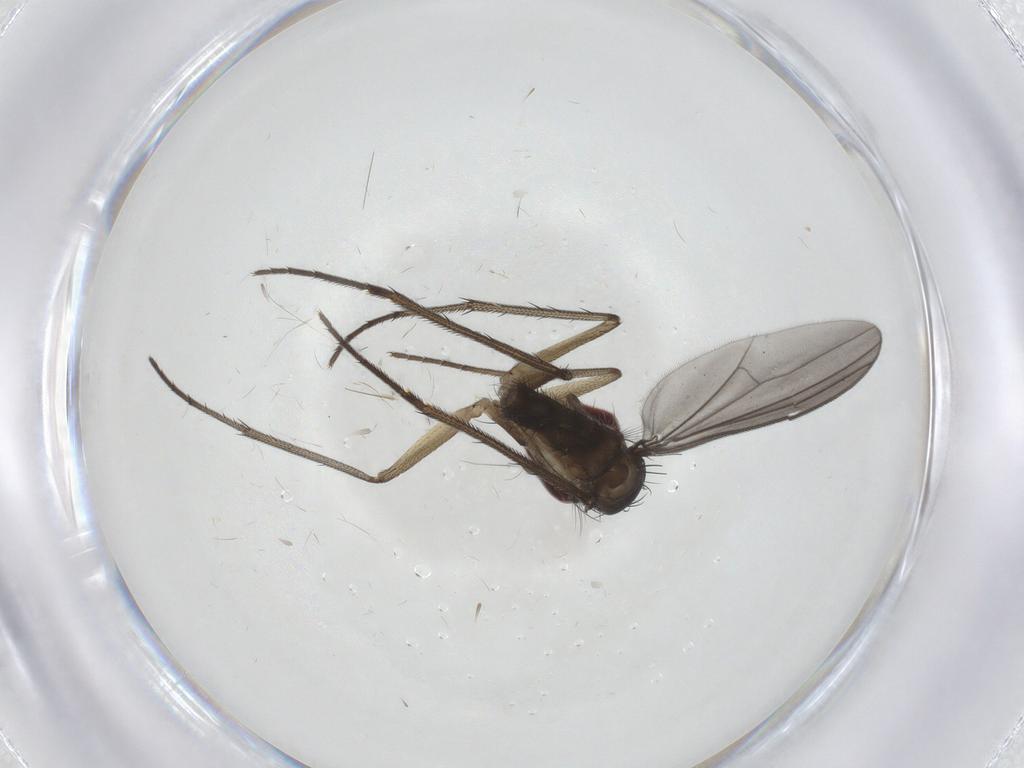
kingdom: Animalia
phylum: Arthropoda
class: Insecta
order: Diptera
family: Dolichopodidae
